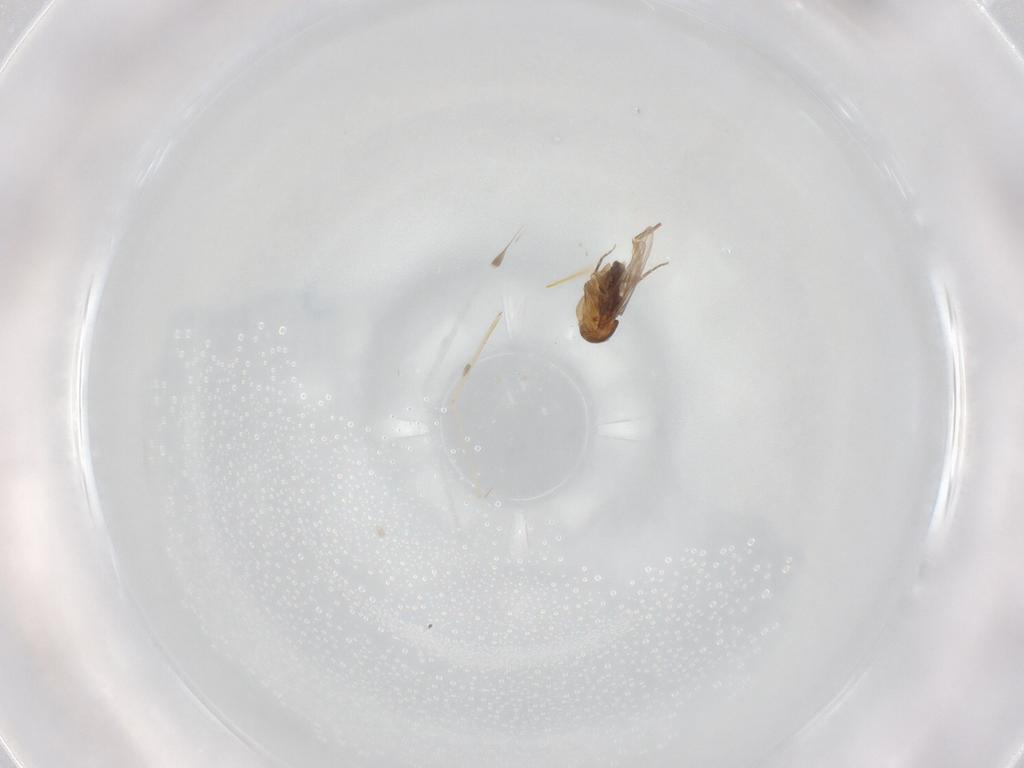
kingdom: Animalia
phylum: Arthropoda
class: Insecta
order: Diptera
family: Lauxaniidae
